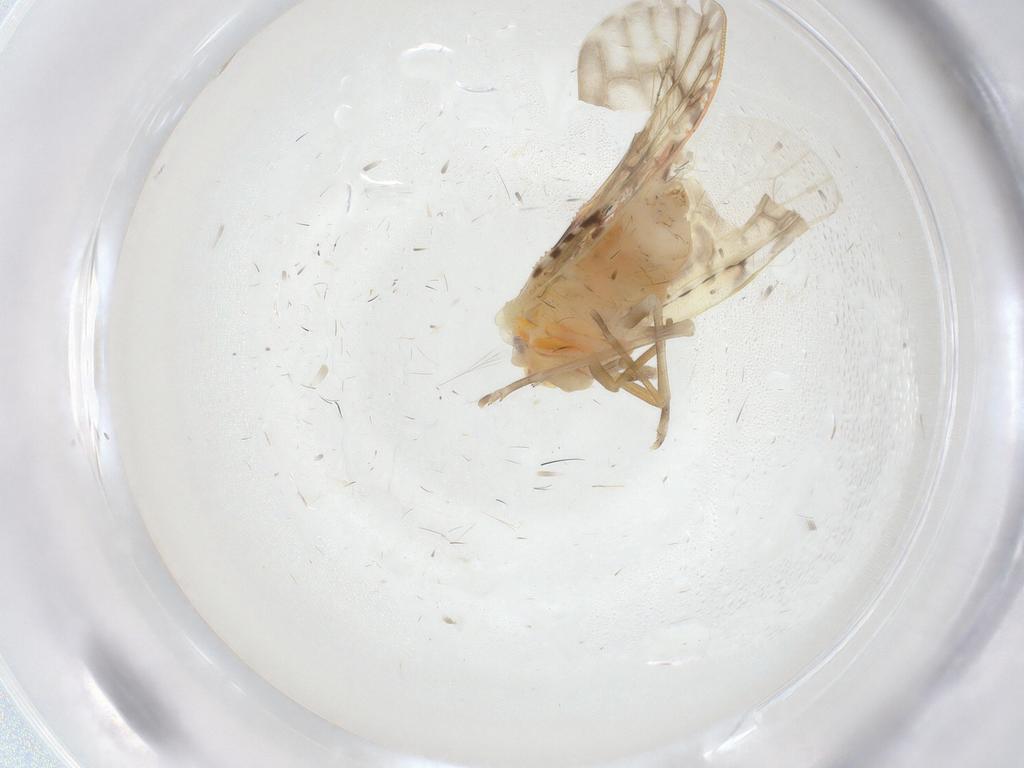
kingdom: Animalia
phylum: Arthropoda
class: Insecta
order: Hemiptera
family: Derbidae
